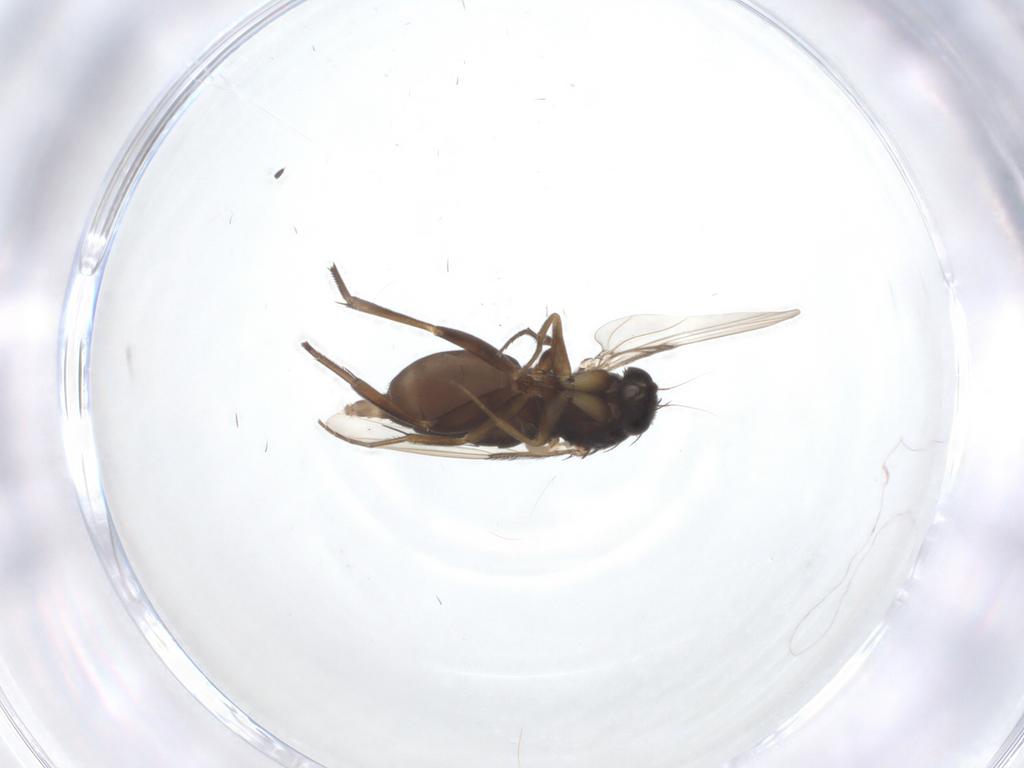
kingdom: Animalia
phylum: Arthropoda
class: Insecta
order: Diptera
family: Phoridae
